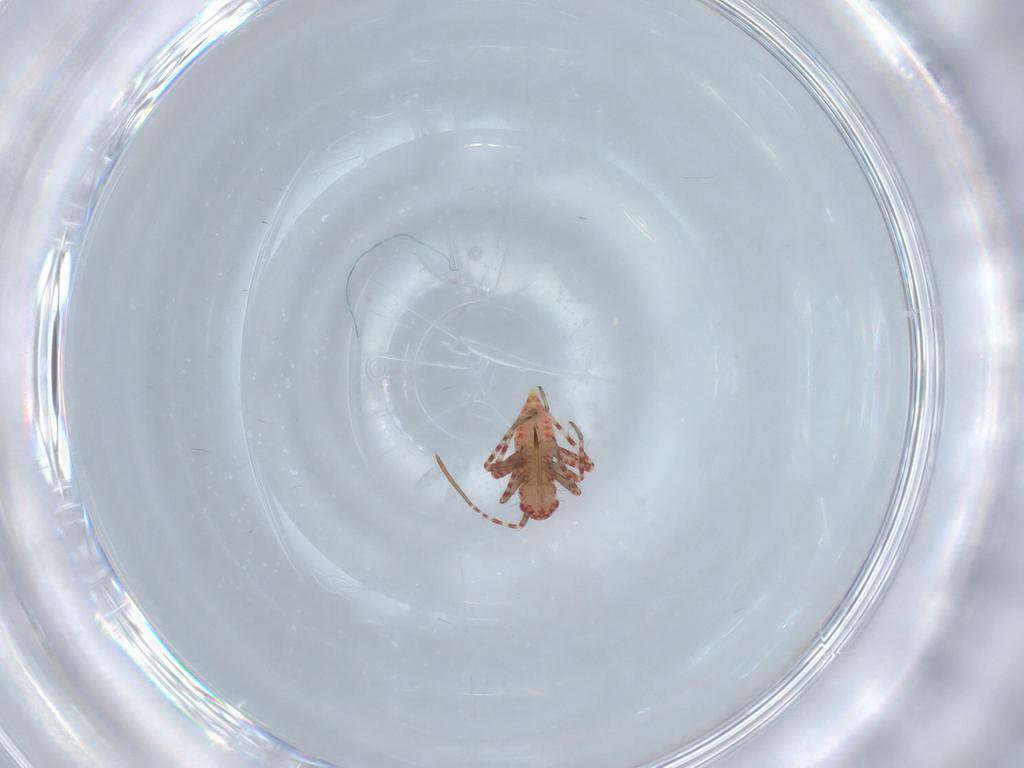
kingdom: Animalia
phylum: Arthropoda
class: Insecta
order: Hemiptera
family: Miridae
